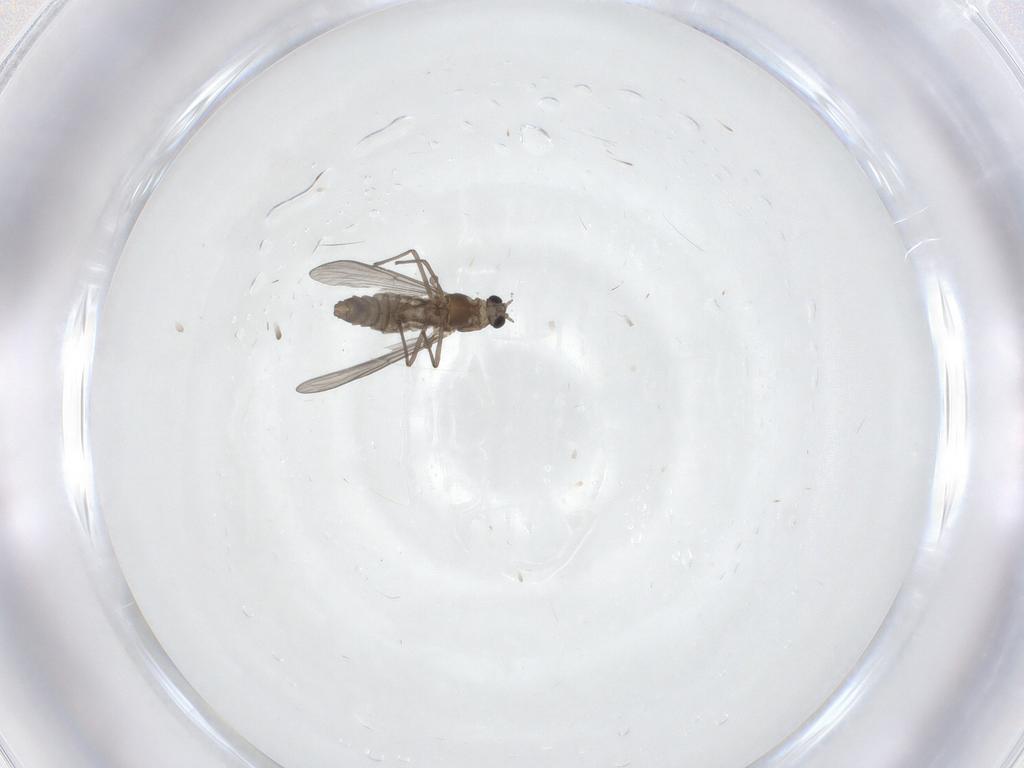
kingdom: Animalia
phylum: Arthropoda
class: Insecta
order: Diptera
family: Chironomidae
